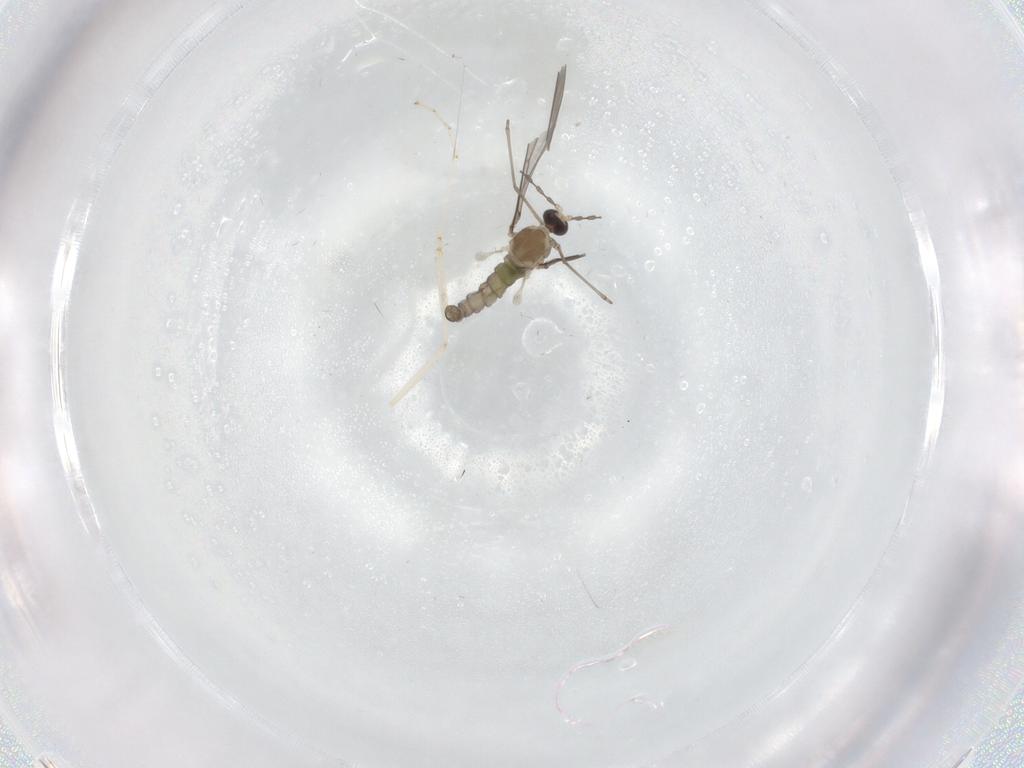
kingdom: Animalia
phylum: Arthropoda
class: Insecta
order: Diptera
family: Cecidomyiidae
